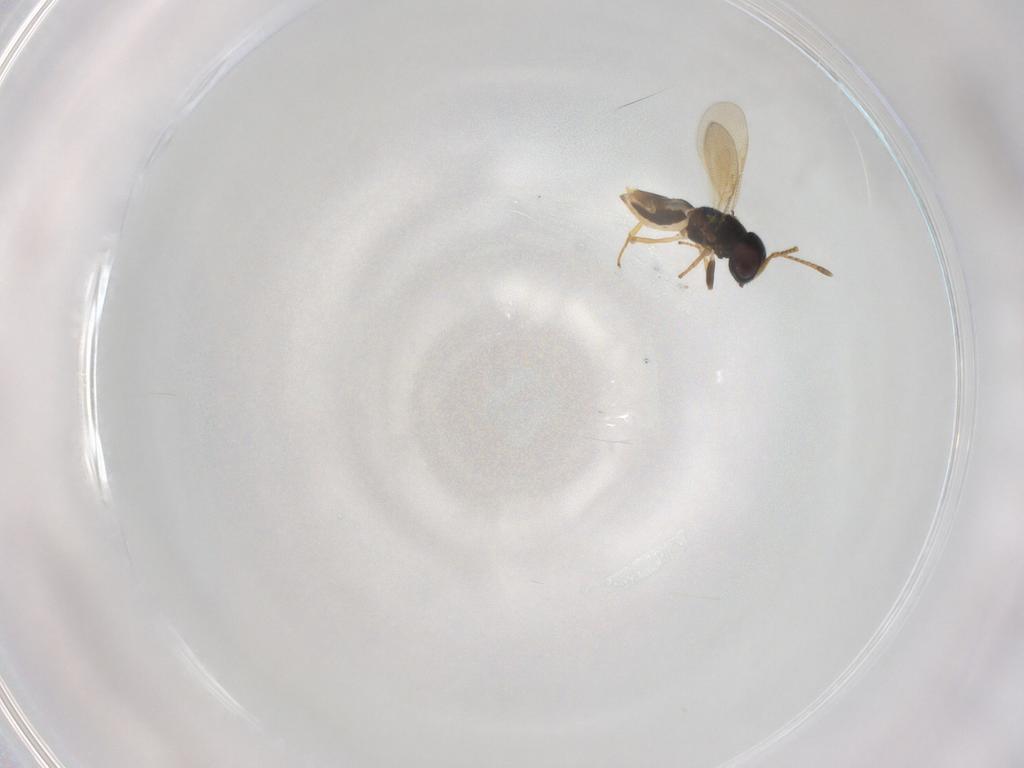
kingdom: Animalia
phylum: Arthropoda
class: Insecta
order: Hymenoptera
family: Encyrtidae
